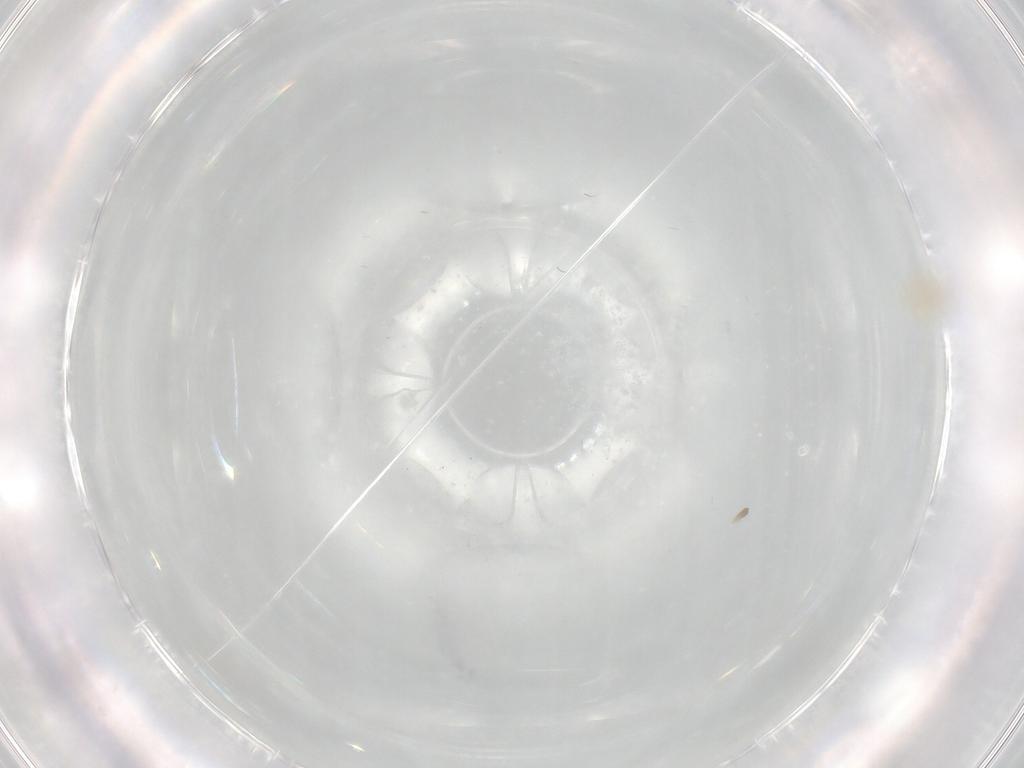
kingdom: Animalia
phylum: Arthropoda
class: Insecta
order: Hemiptera
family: Aleyrodidae
